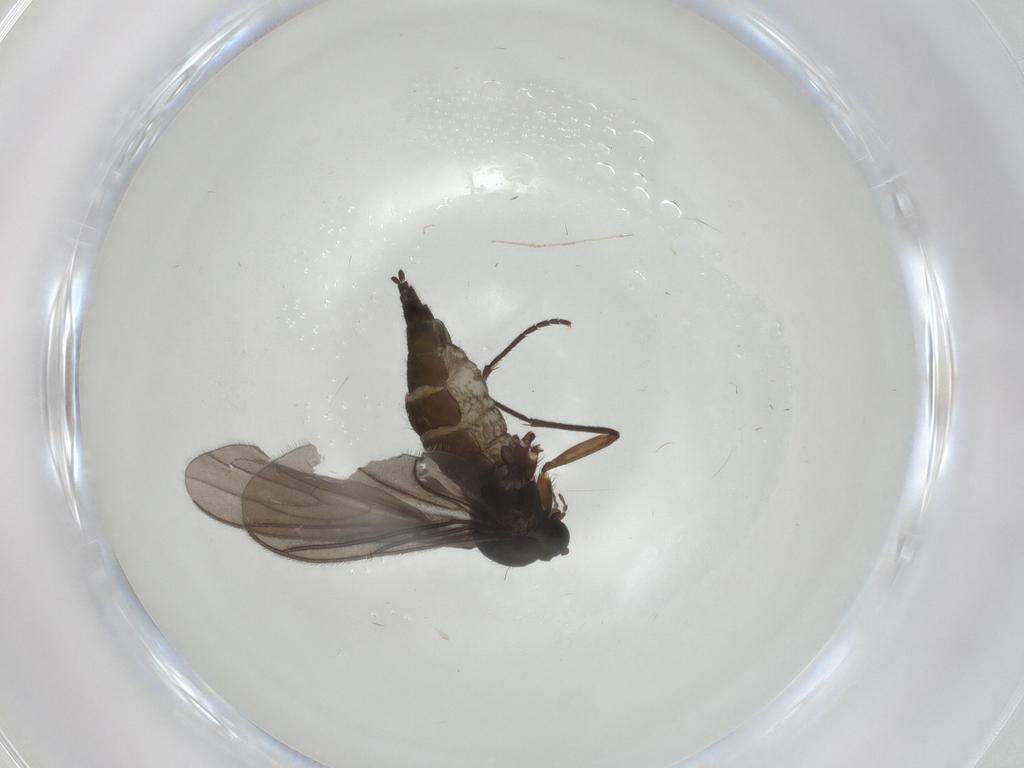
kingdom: Animalia
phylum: Arthropoda
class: Insecta
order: Diptera
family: Sciaridae
